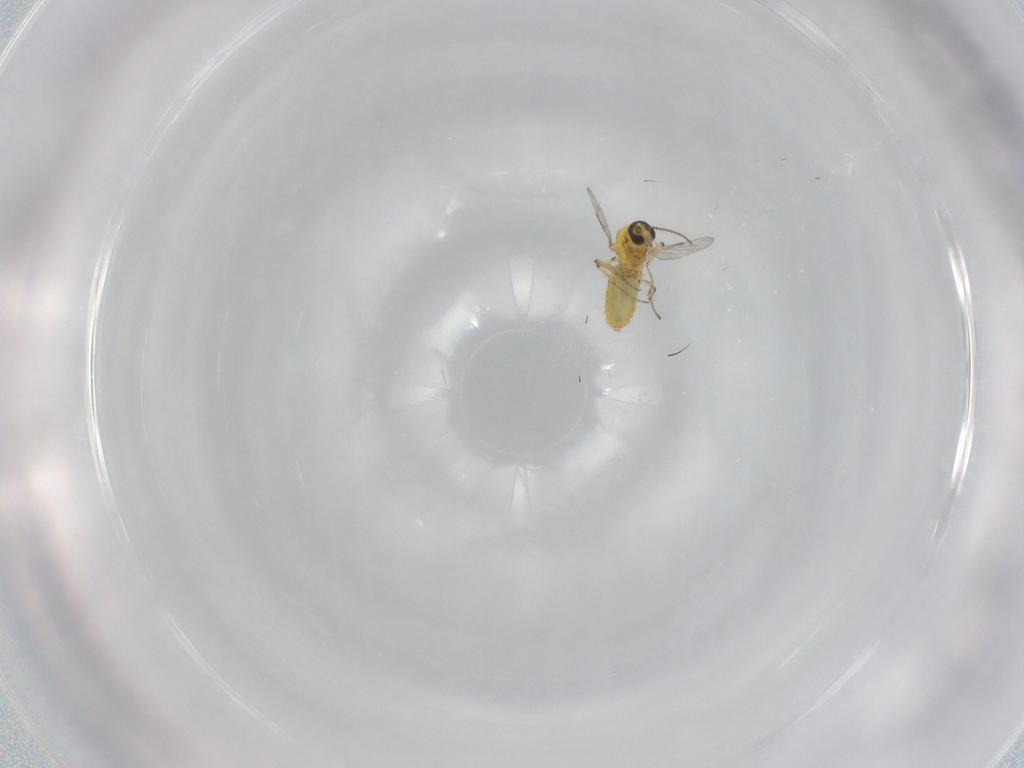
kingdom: Animalia
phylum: Arthropoda
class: Insecta
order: Diptera
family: Ceratopogonidae
